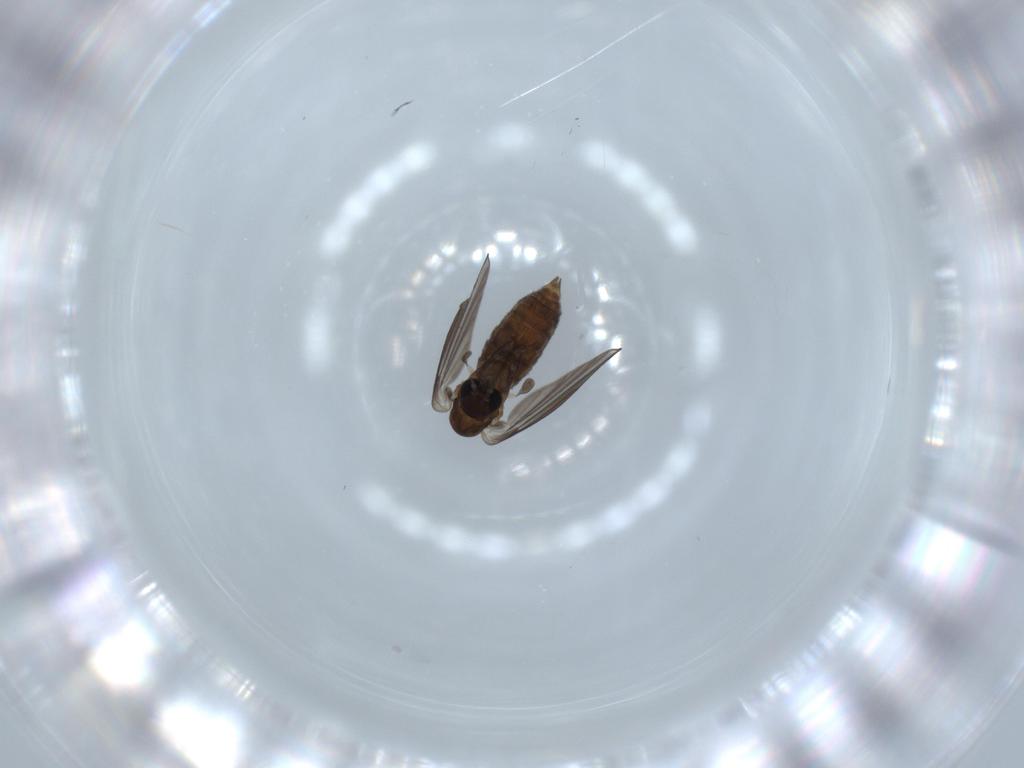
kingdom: Animalia
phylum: Arthropoda
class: Insecta
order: Diptera
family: Psychodidae
